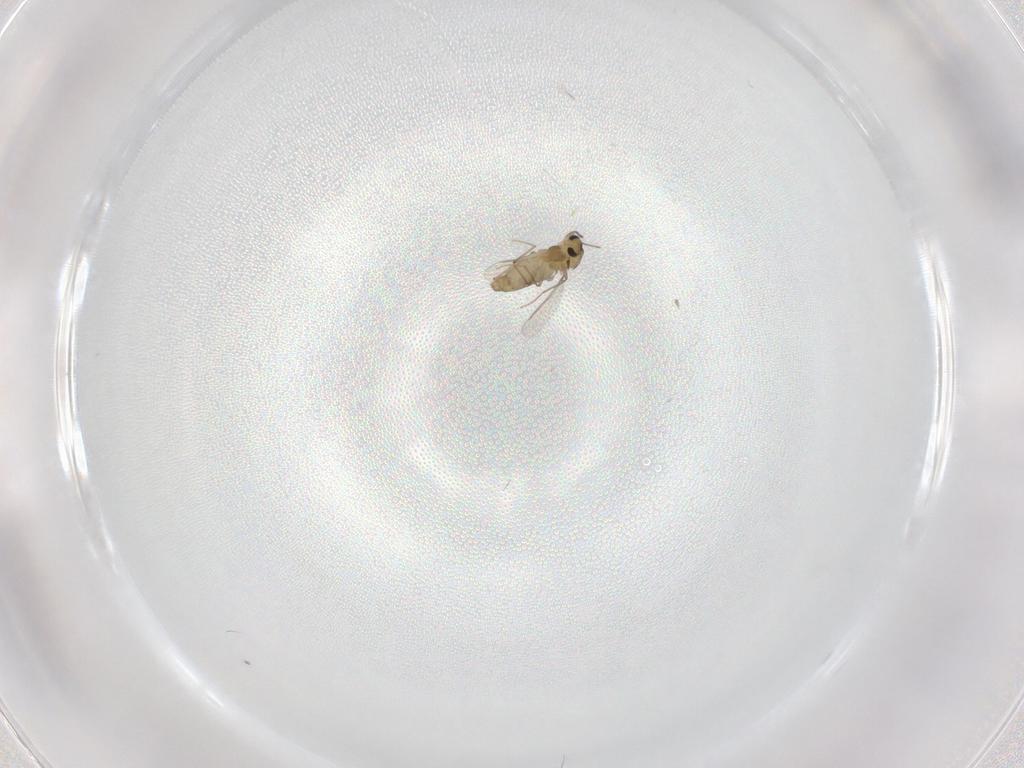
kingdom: Animalia
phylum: Arthropoda
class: Insecta
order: Diptera
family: Chironomidae
